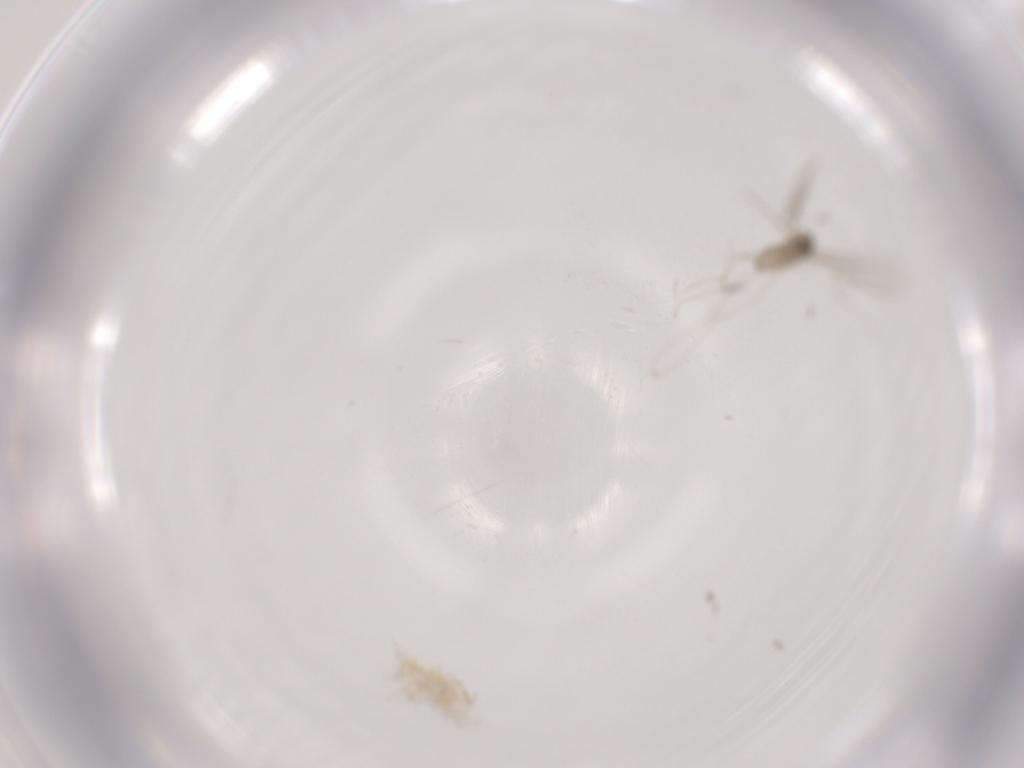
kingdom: Animalia
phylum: Arthropoda
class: Insecta
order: Diptera
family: Cecidomyiidae
